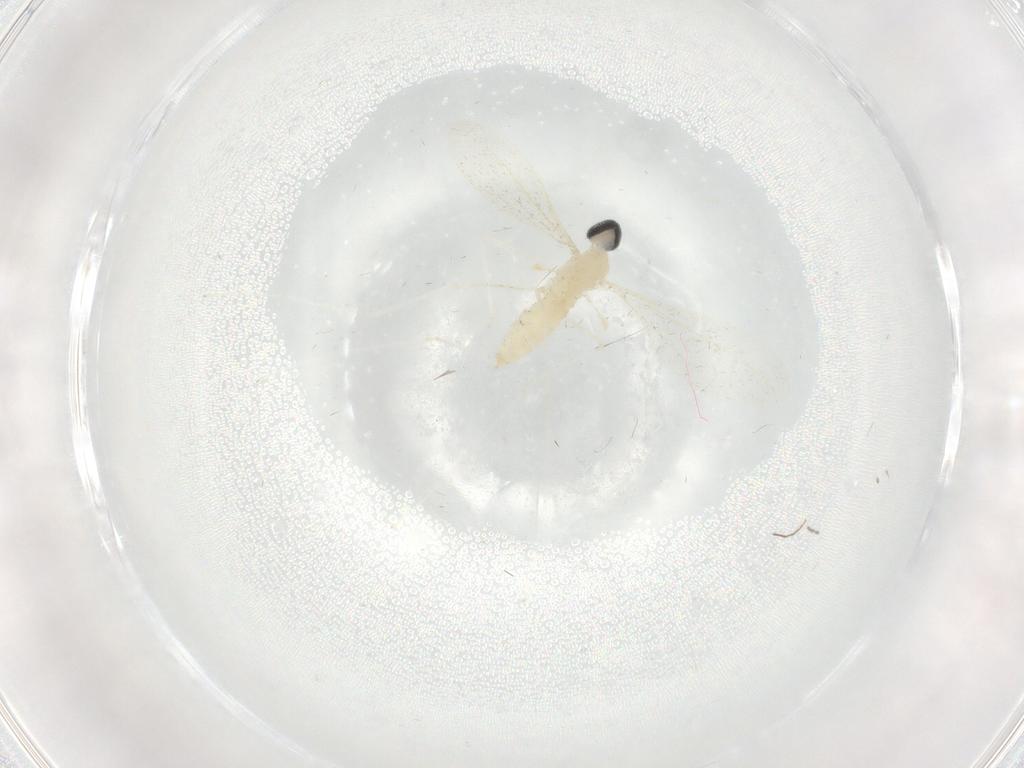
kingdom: Animalia
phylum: Arthropoda
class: Insecta
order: Diptera
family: Cecidomyiidae
